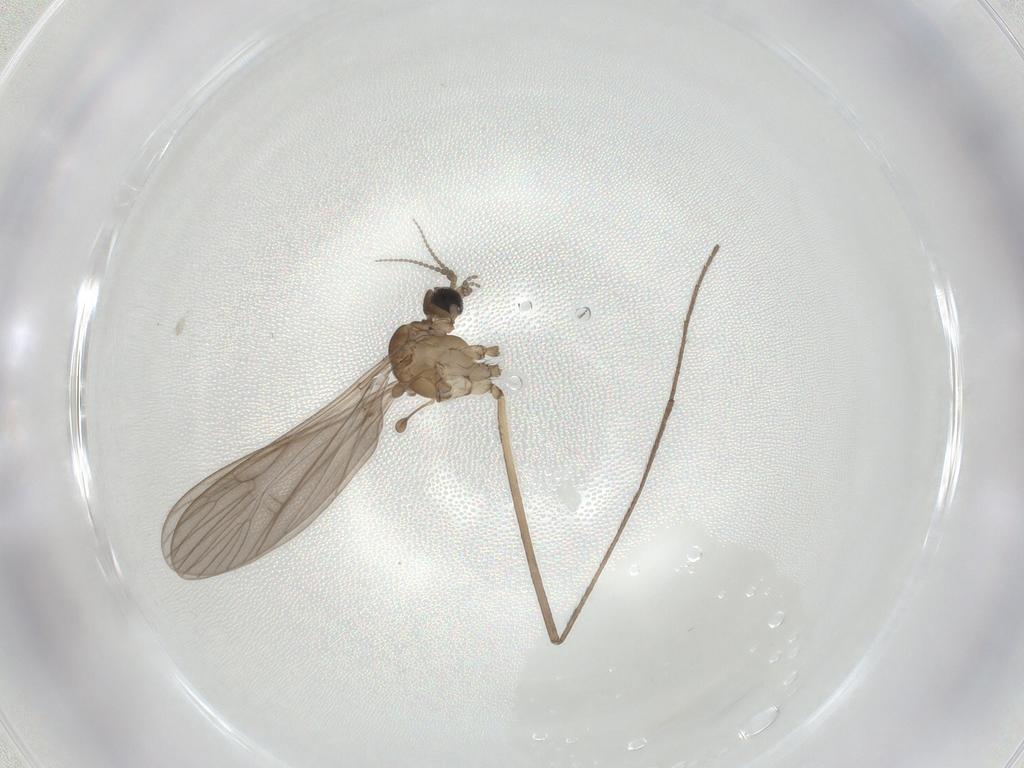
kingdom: Animalia
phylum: Arthropoda
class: Insecta
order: Diptera
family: Limoniidae
